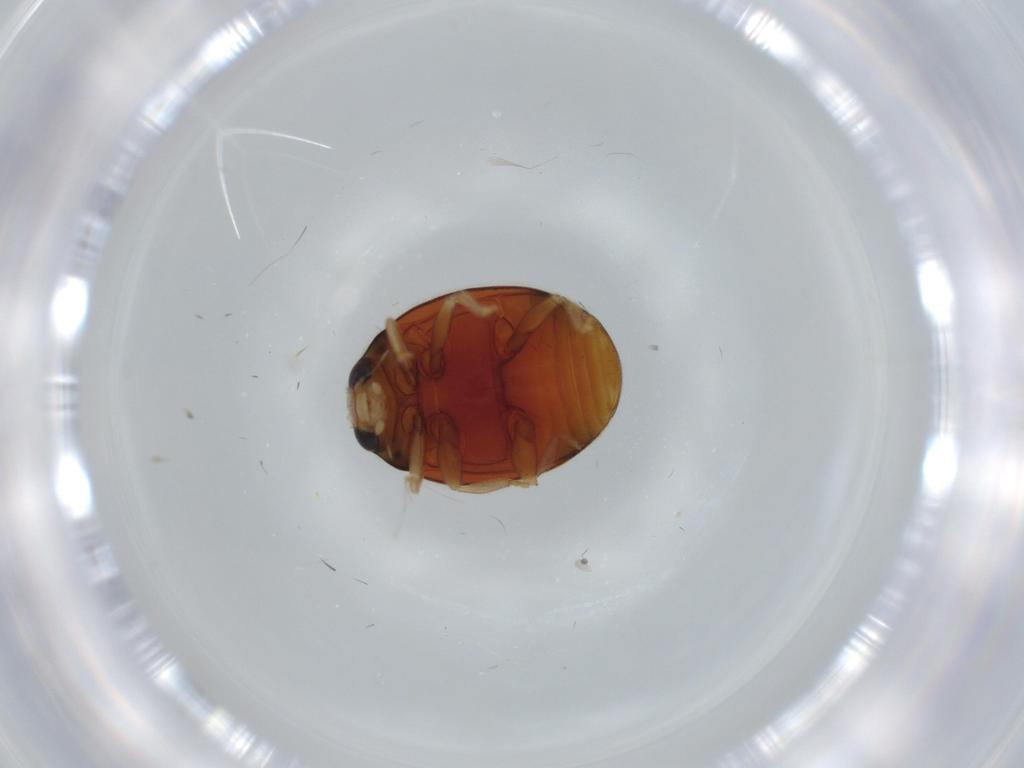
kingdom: Animalia
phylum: Arthropoda
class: Insecta
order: Coleoptera
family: Coccinellidae
